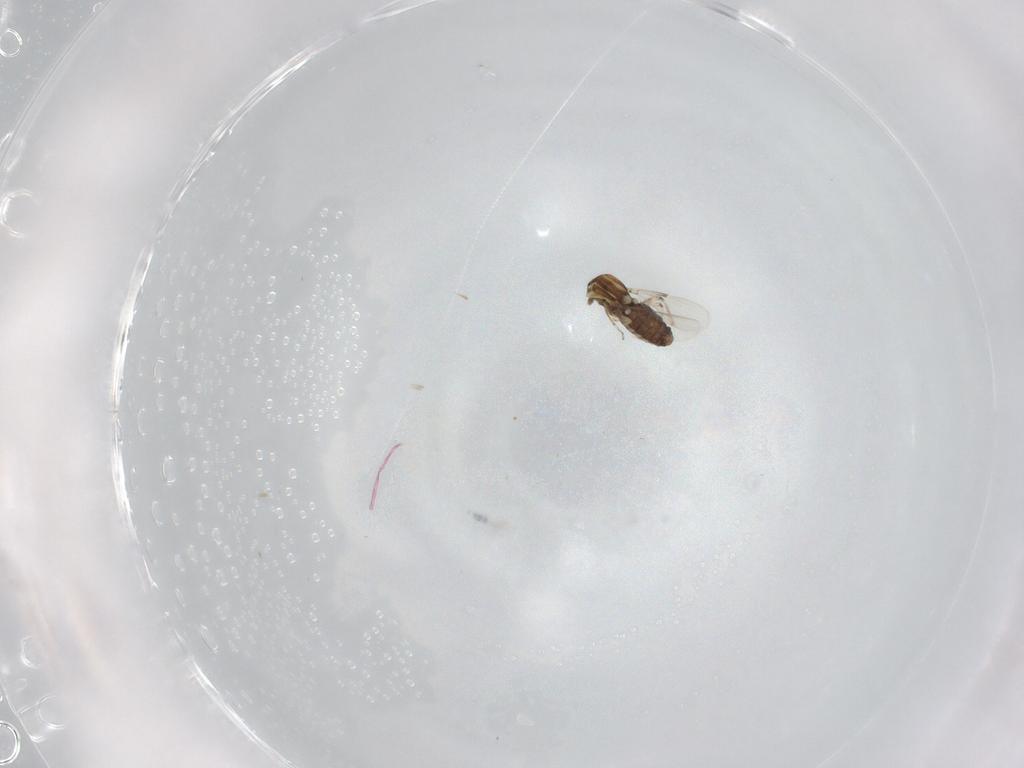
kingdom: Animalia
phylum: Arthropoda
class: Insecta
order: Diptera
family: Ceratopogonidae
